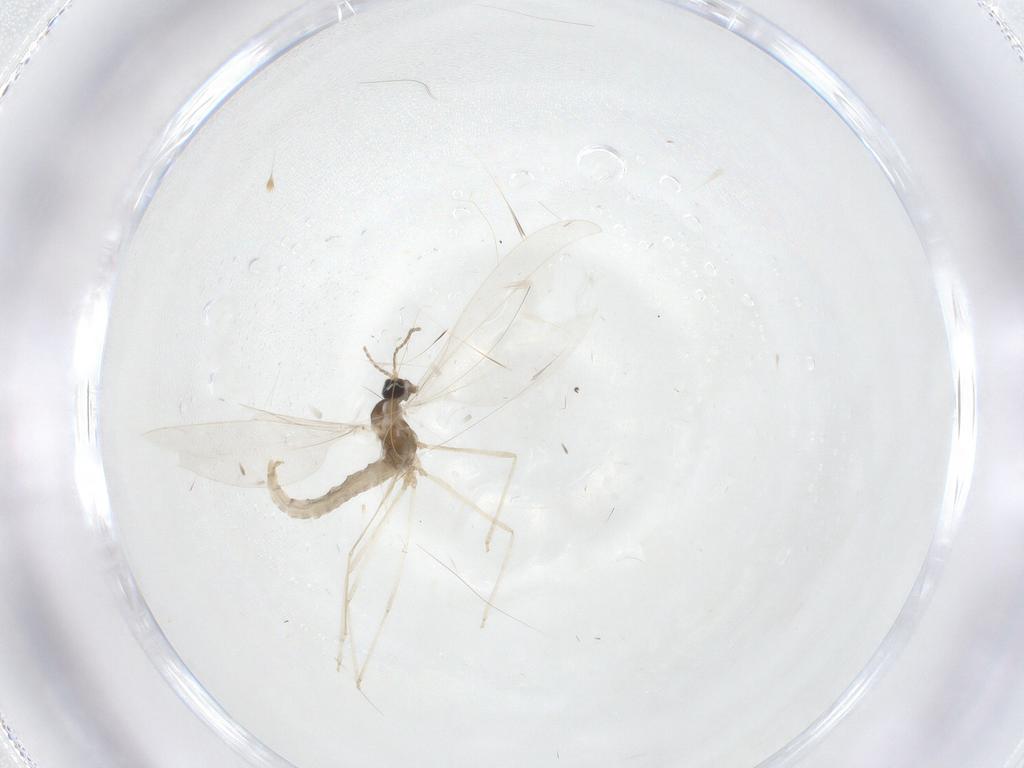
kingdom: Animalia
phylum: Arthropoda
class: Insecta
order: Diptera
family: Cecidomyiidae
